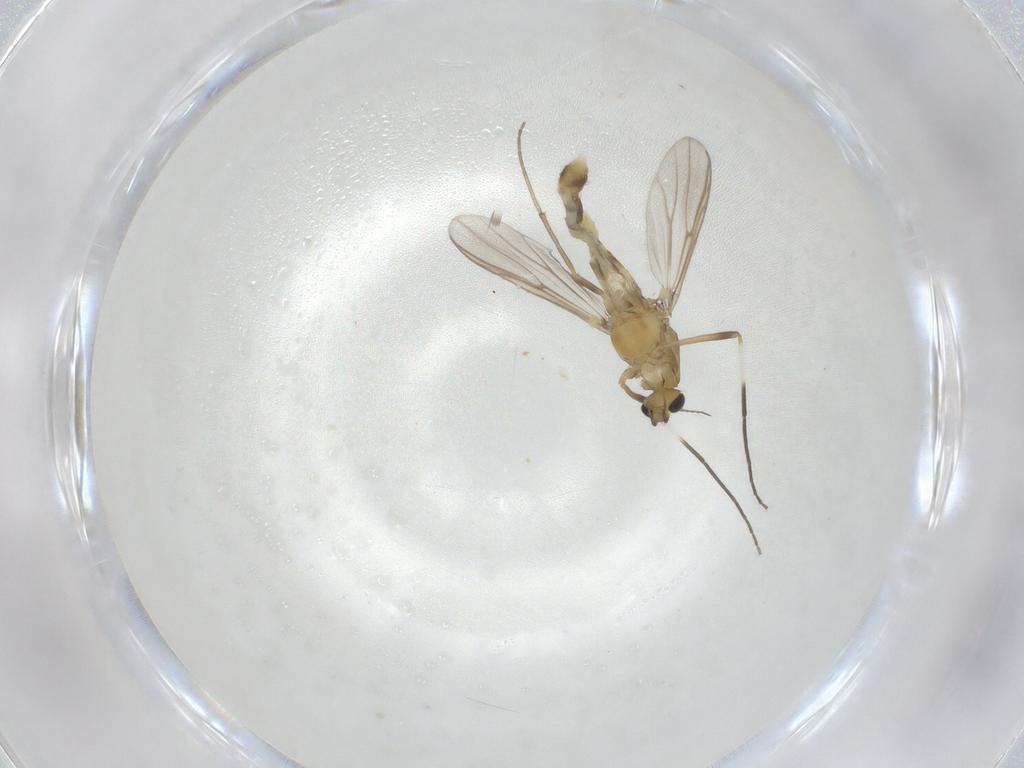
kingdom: Animalia
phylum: Arthropoda
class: Insecta
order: Diptera
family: Chironomidae
